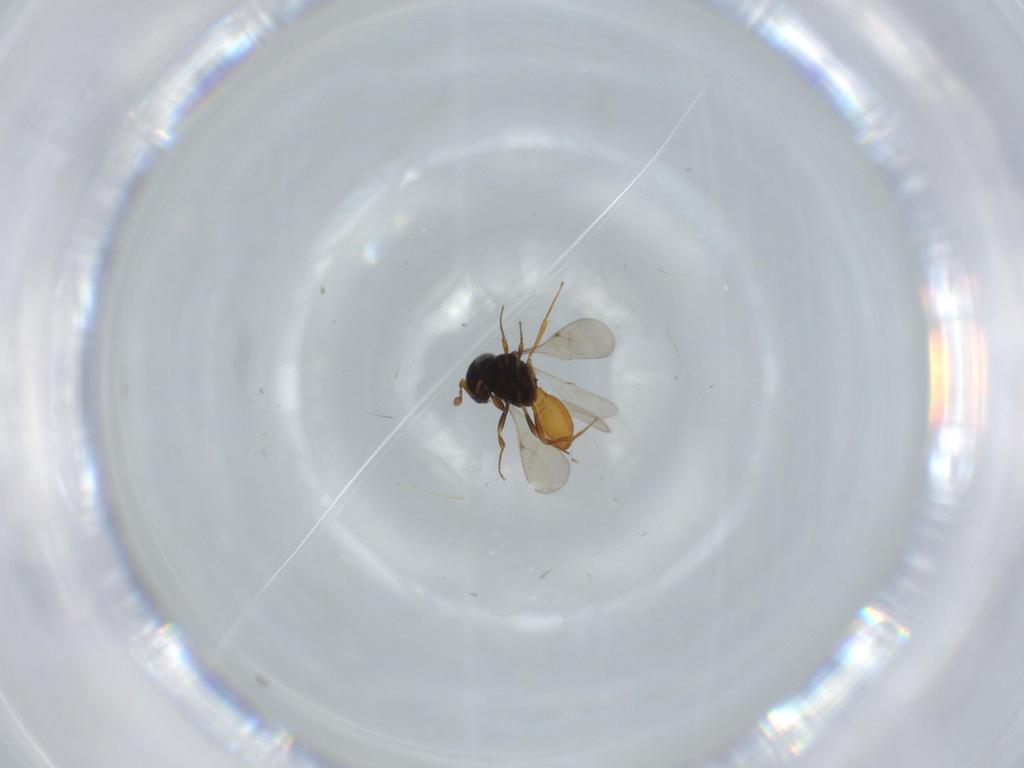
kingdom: Animalia
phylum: Arthropoda
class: Insecta
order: Hymenoptera
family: Scelionidae
